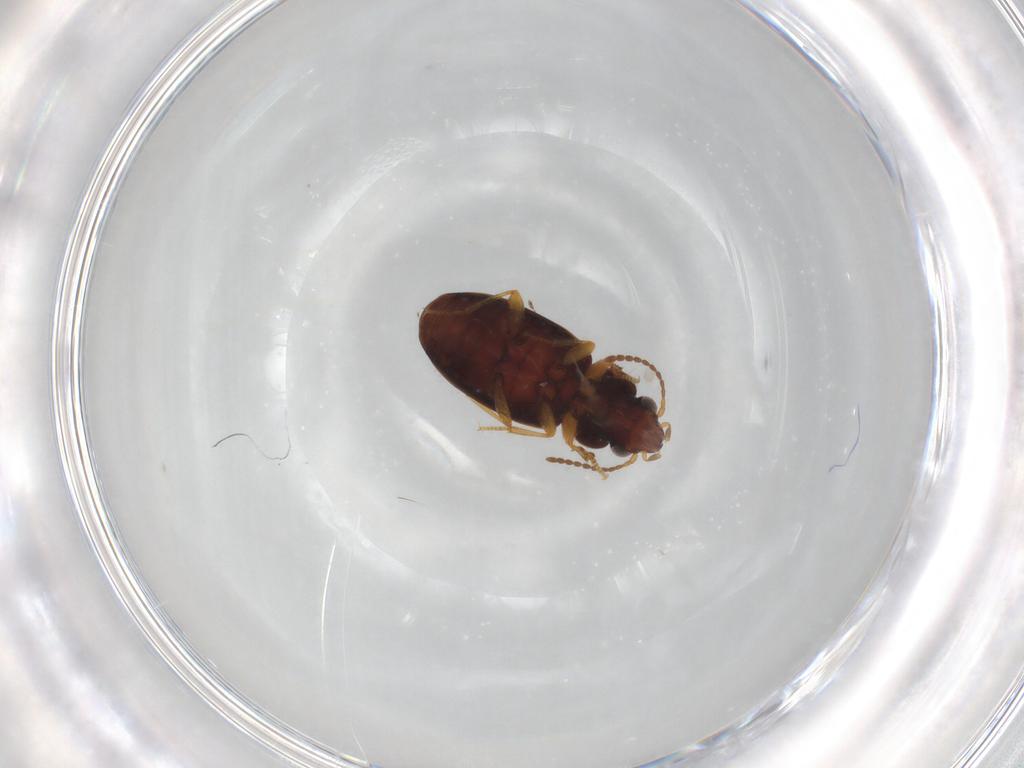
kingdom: Animalia
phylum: Arthropoda
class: Insecta
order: Coleoptera
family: Carabidae
